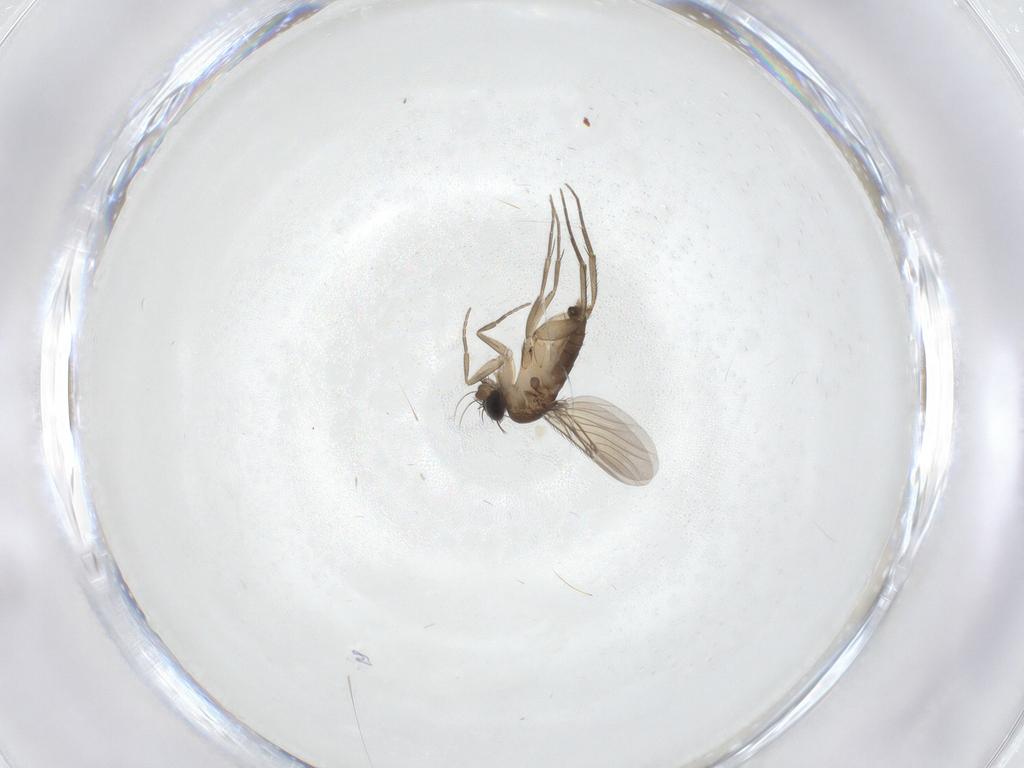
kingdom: Animalia
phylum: Arthropoda
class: Insecta
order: Diptera
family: Phoridae
